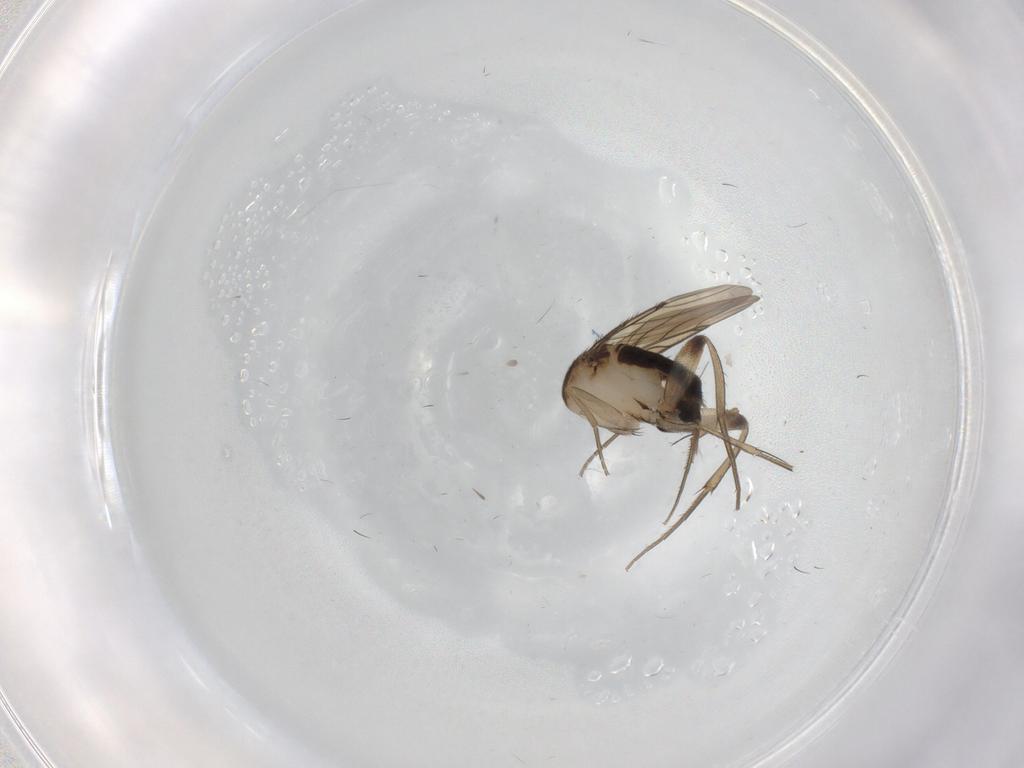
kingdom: Animalia
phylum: Arthropoda
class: Insecta
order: Diptera
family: Phoridae
